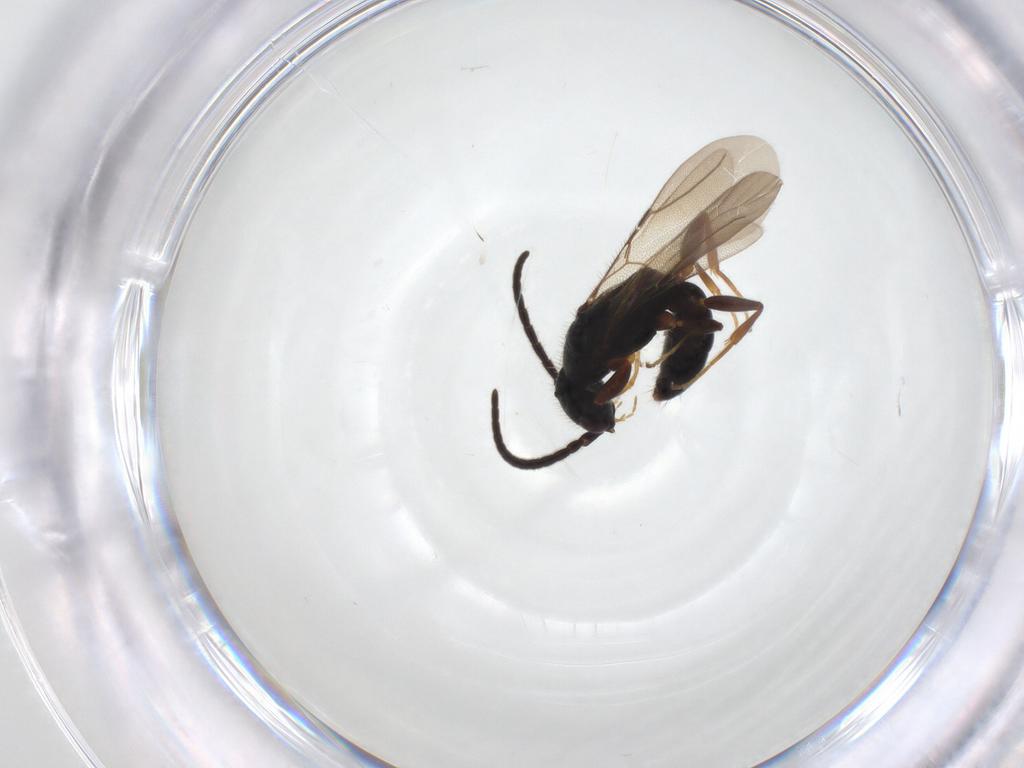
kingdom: Animalia
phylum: Arthropoda
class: Insecta
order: Hymenoptera
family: Bethylidae
